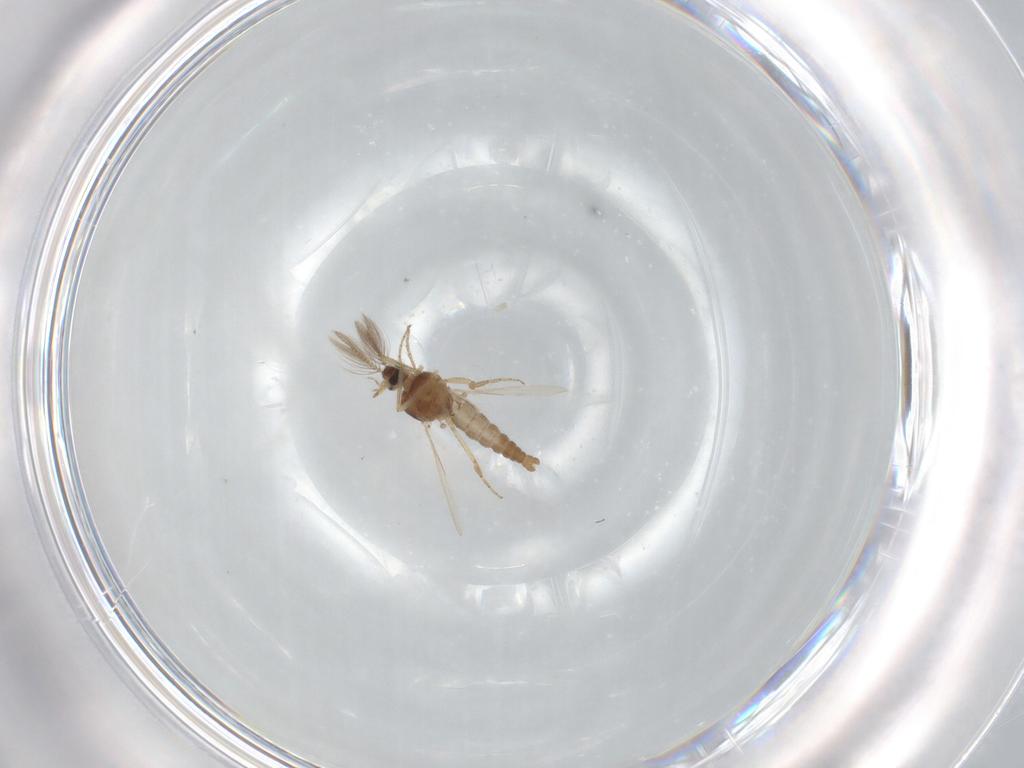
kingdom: Animalia
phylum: Arthropoda
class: Insecta
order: Diptera
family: Ceratopogonidae
